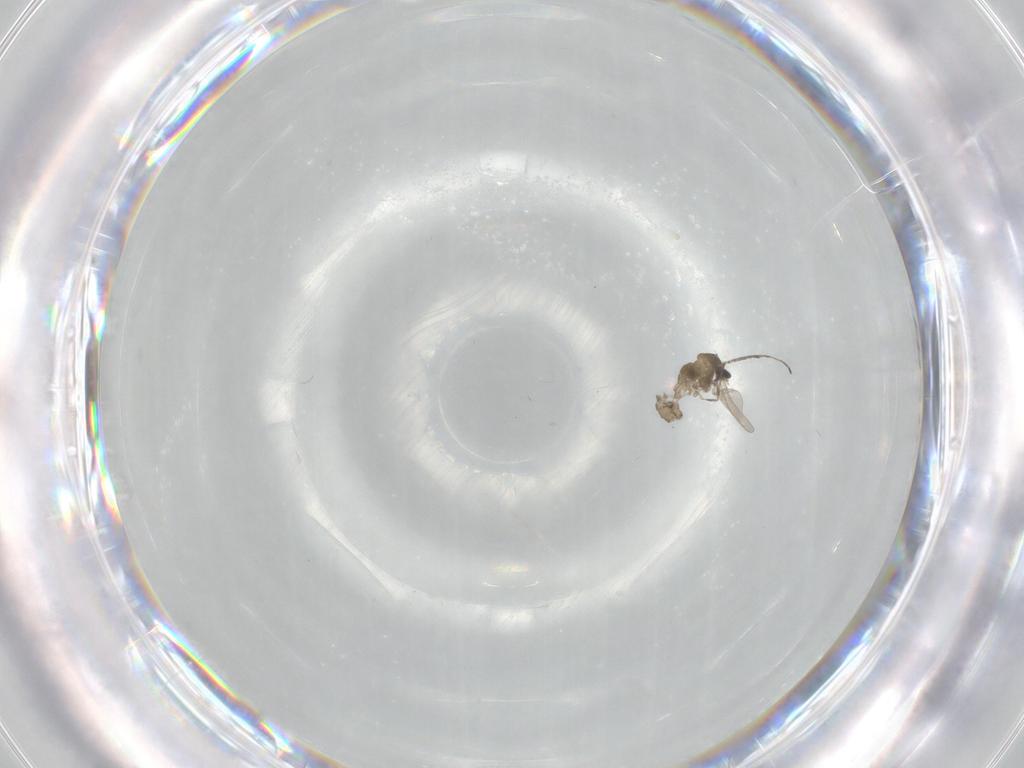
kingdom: Animalia
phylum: Arthropoda
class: Insecta
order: Diptera
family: Cecidomyiidae
